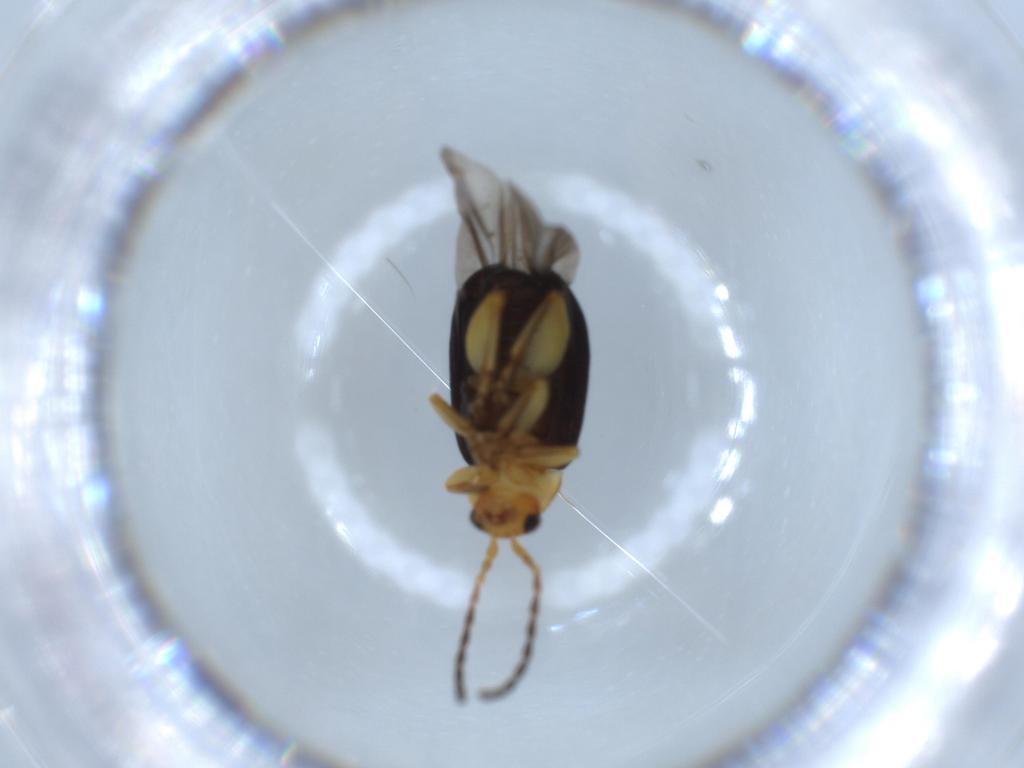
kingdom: Animalia
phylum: Arthropoda
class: Insecta
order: Coleoptera
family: Chrysomelidae
